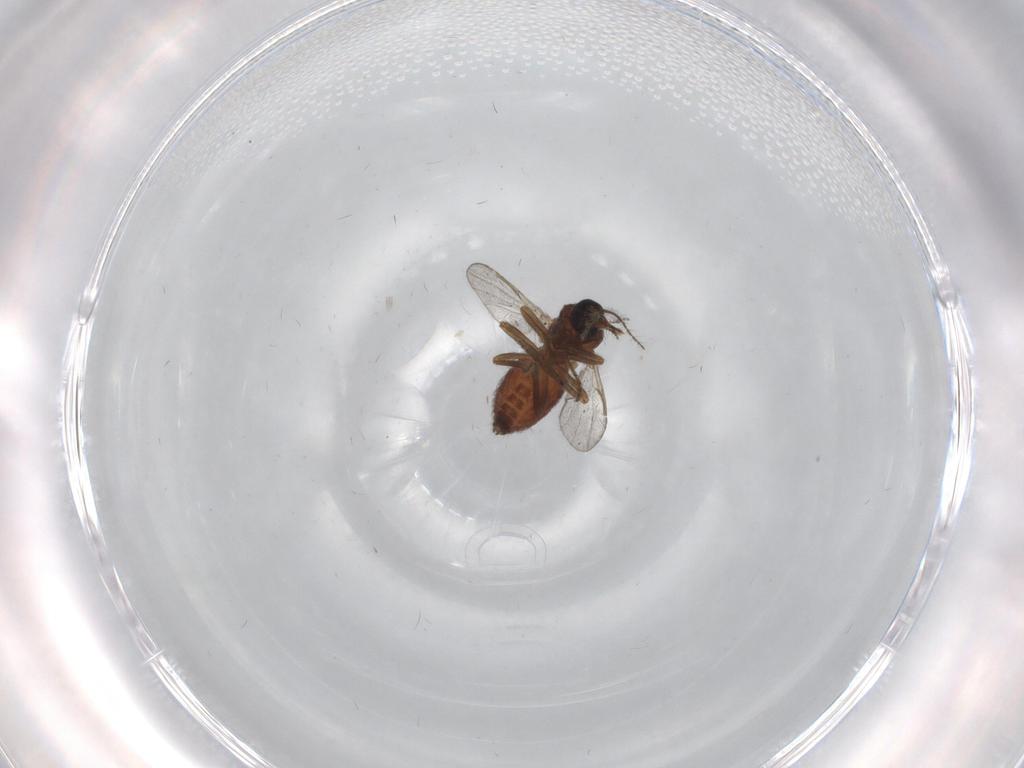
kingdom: Animalia
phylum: Arthropoda
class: Insecta
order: Diptera
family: Ceratopogonidae
